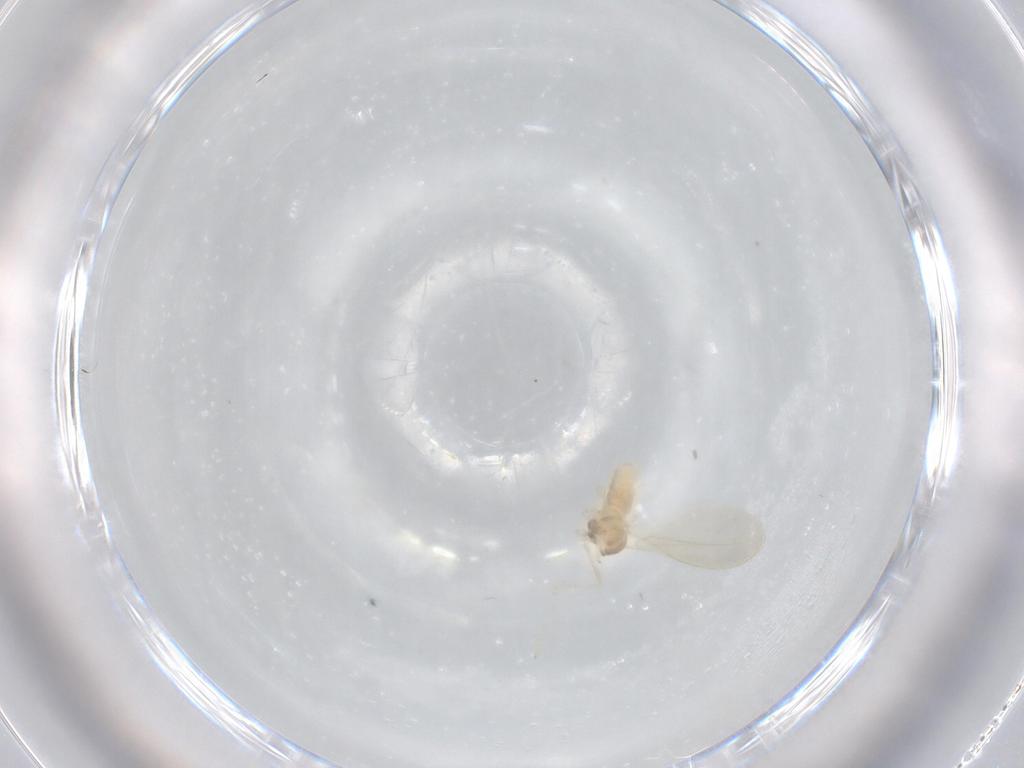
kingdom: Animalia
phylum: Arthropoda
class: Insecta
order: Diptera
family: Cecidomyiidae
